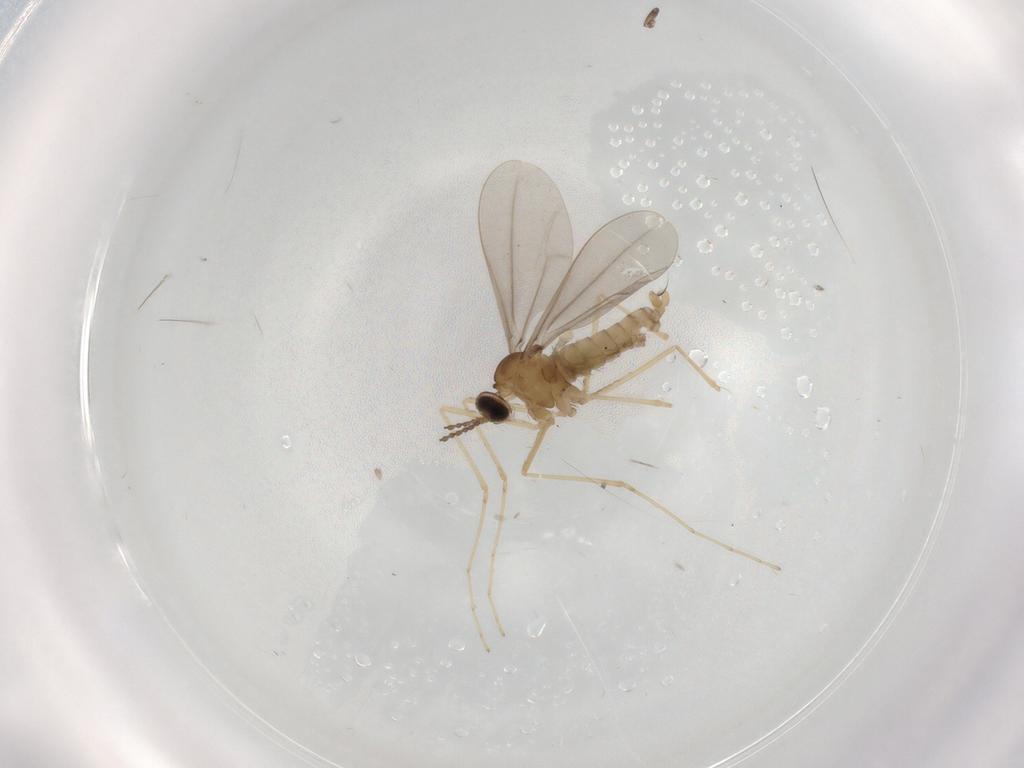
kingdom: Animalia
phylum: Arthropoda
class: Insecta
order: Diptera
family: Cecidomyiidae
